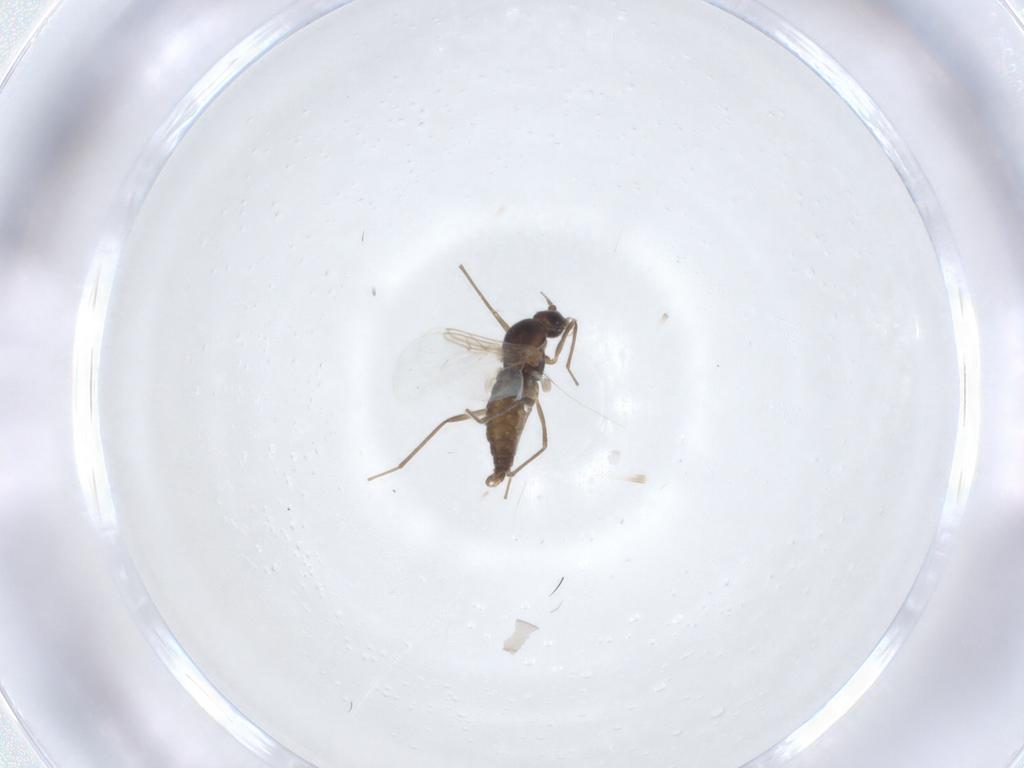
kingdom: Animalia
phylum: Arthropoda
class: Insecta
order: Diptera
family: Cecidomyiidae
